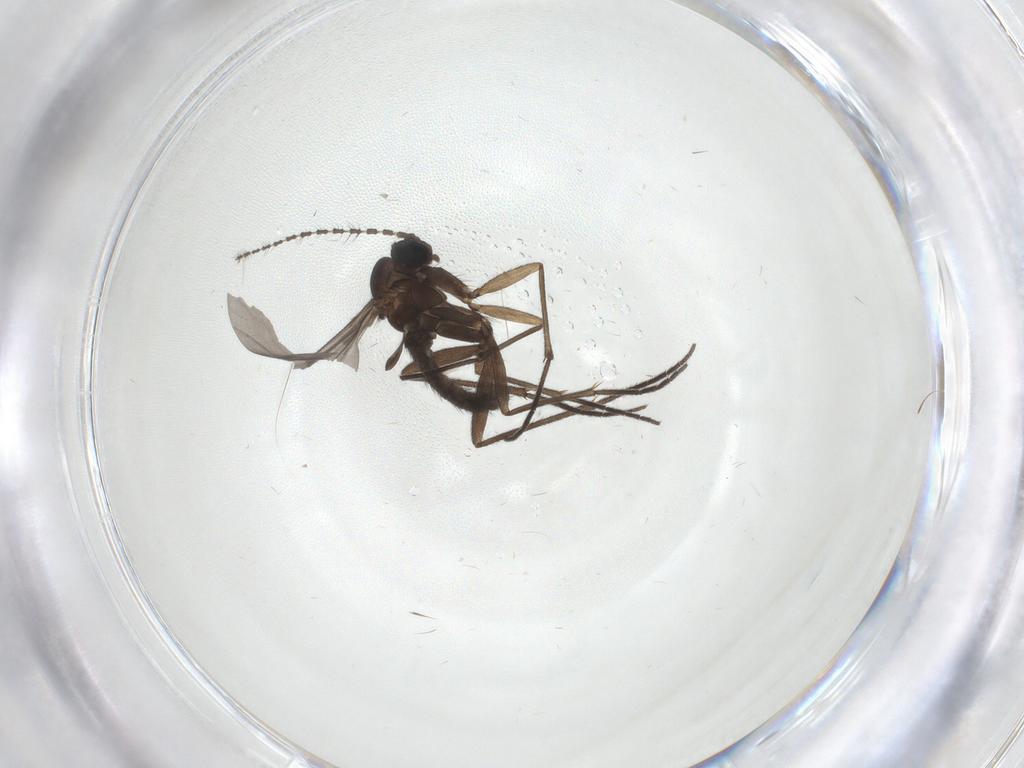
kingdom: Animalia
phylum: Arthropoda
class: Insecta
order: Diptera
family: Sciaridae
